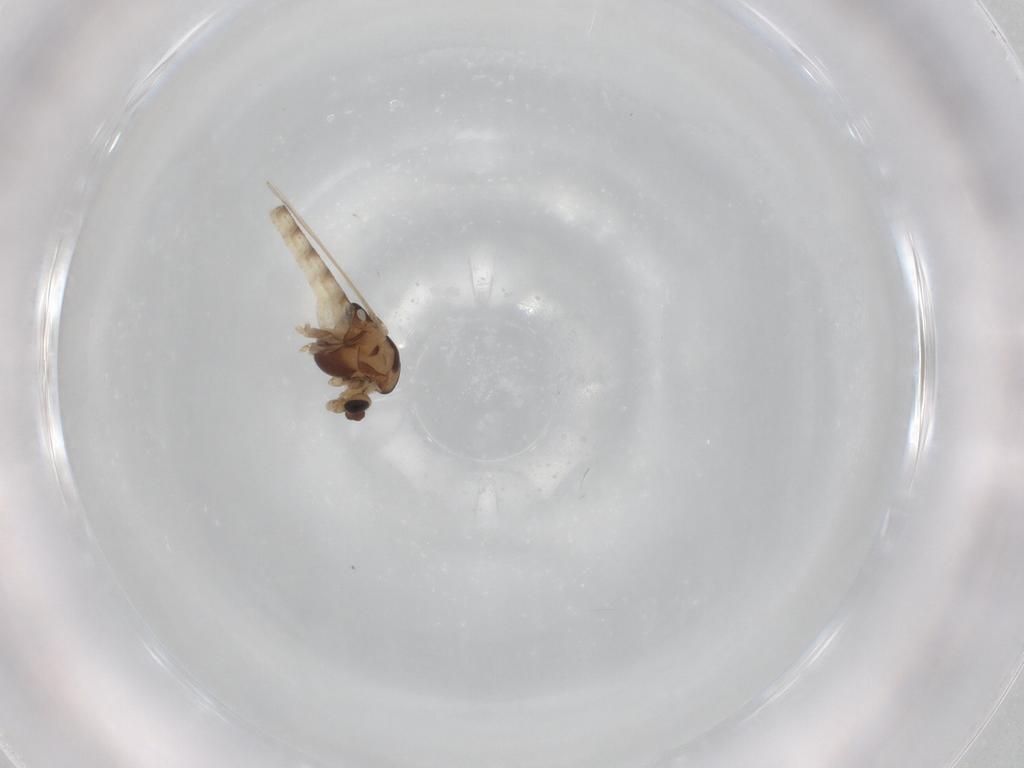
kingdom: Animalia
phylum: Arthropoda
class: Insecta
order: Diptera
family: Chironomidae
